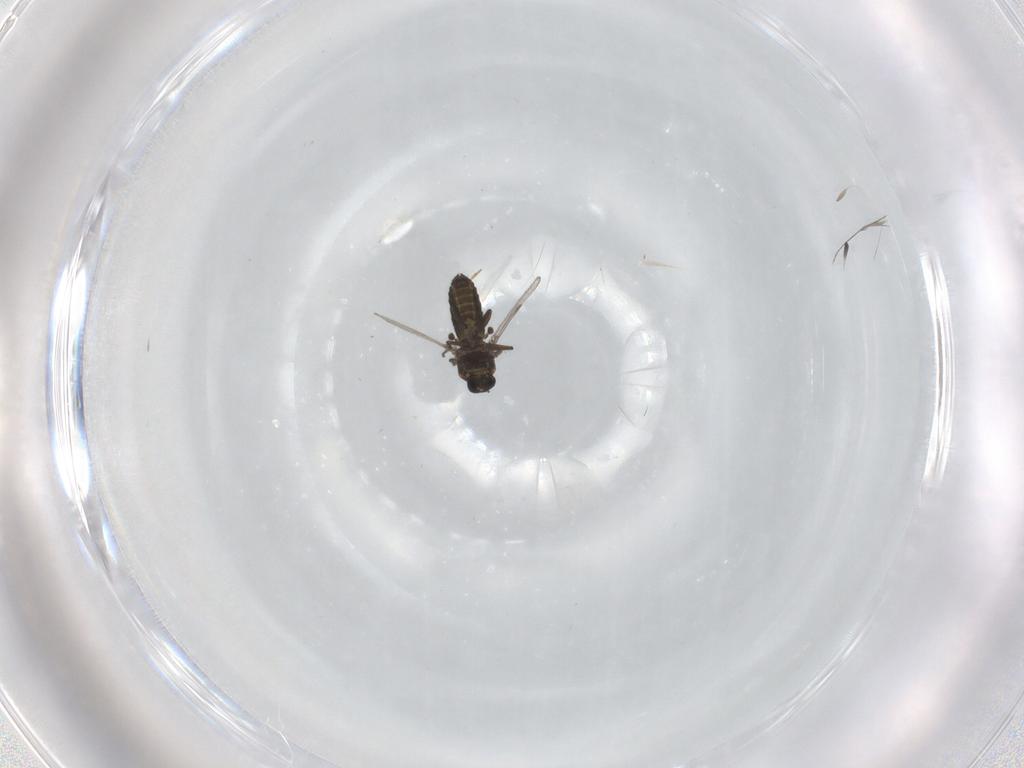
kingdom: Animalia
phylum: Arthropoda
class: Insecta
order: Diptera
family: Ceratopogonidae
